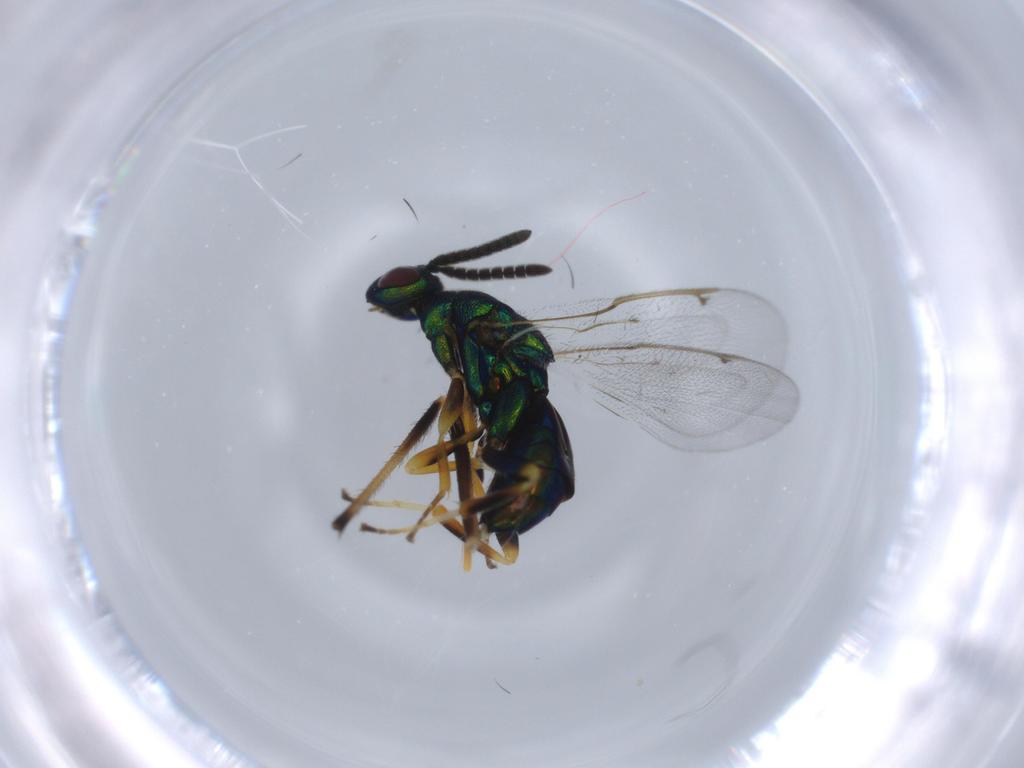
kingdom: Animalia
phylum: Arthropoda
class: Insecta
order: Hymenoptera
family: Torymidae
